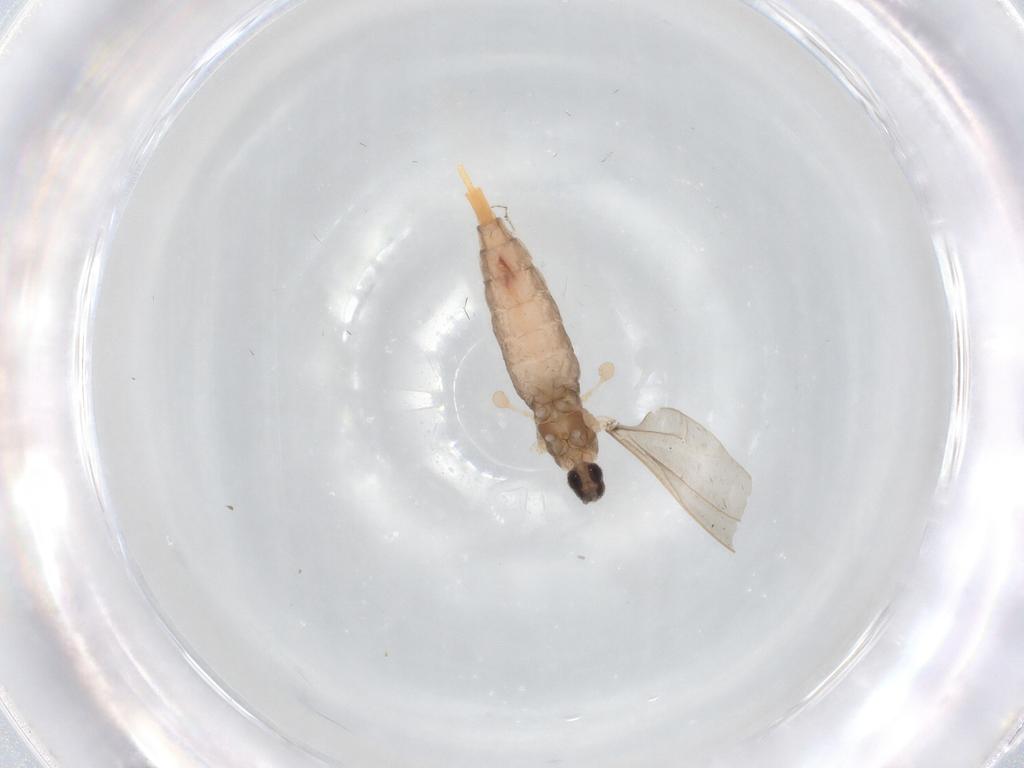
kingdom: Animalia
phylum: Arthropoda
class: Insecta
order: Diptera
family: Cecidomyiidae
